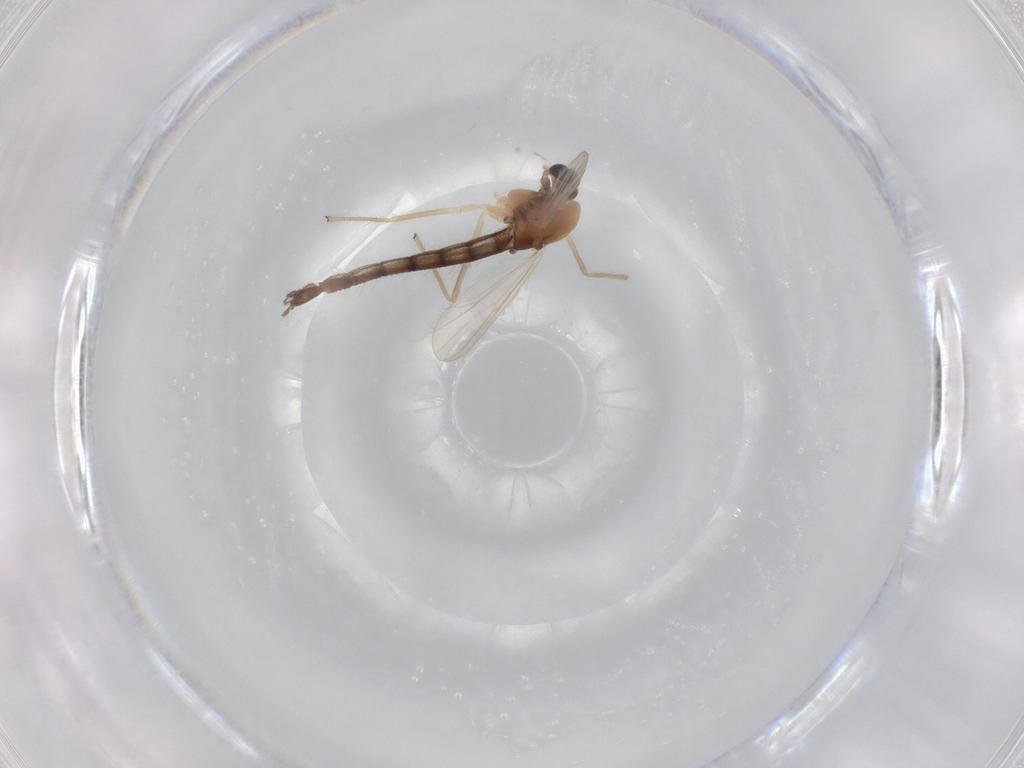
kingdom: Animalia
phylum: Arthropoda
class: Insecta
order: Diptera
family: Chironomidae
